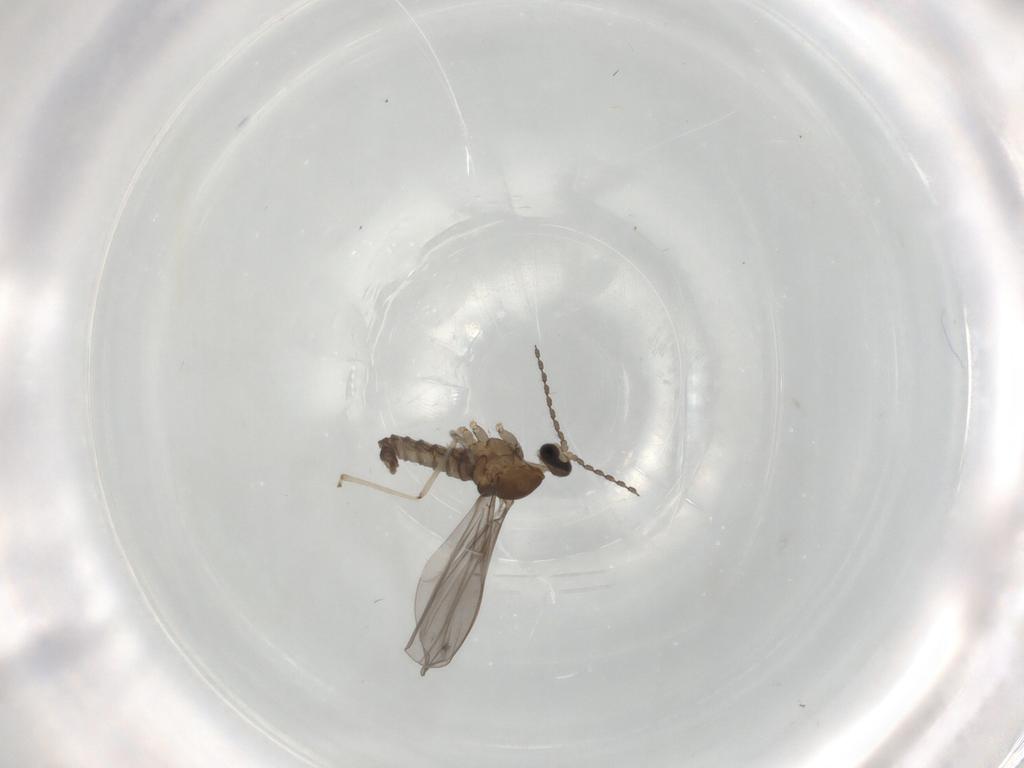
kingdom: Animalia
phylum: Arthropoda
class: Insecta
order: Diptera
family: Cecidomyiidae
